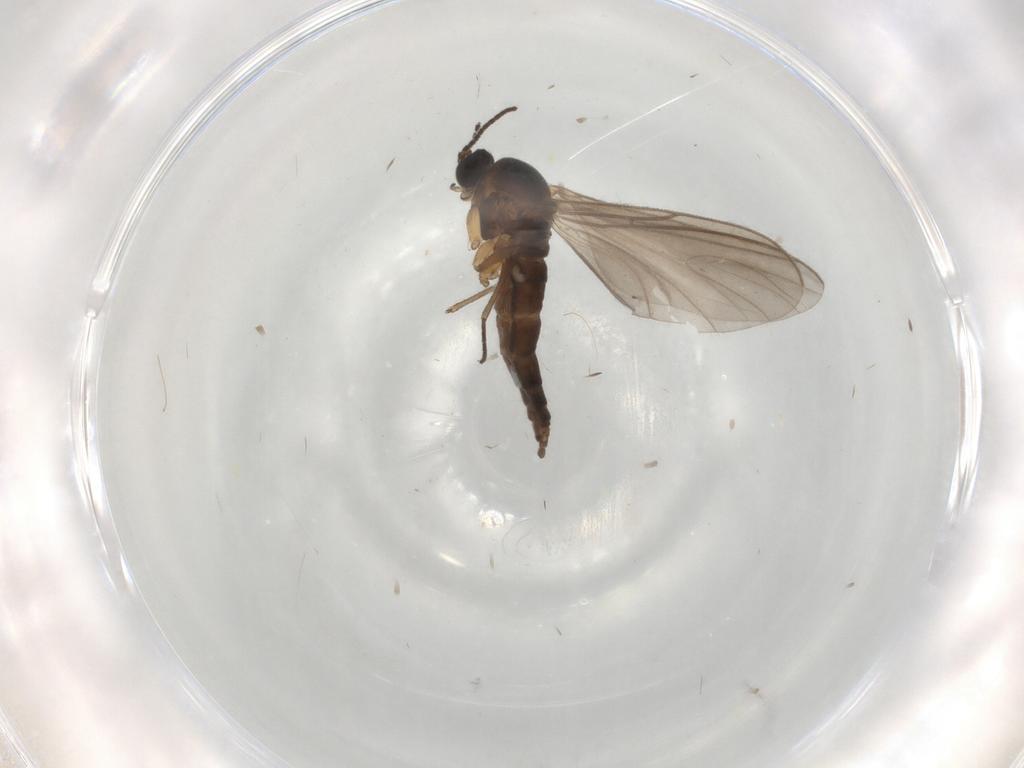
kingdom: Animalia
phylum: Arthropoda
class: Insecta
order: Diptera
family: Sciaridae
